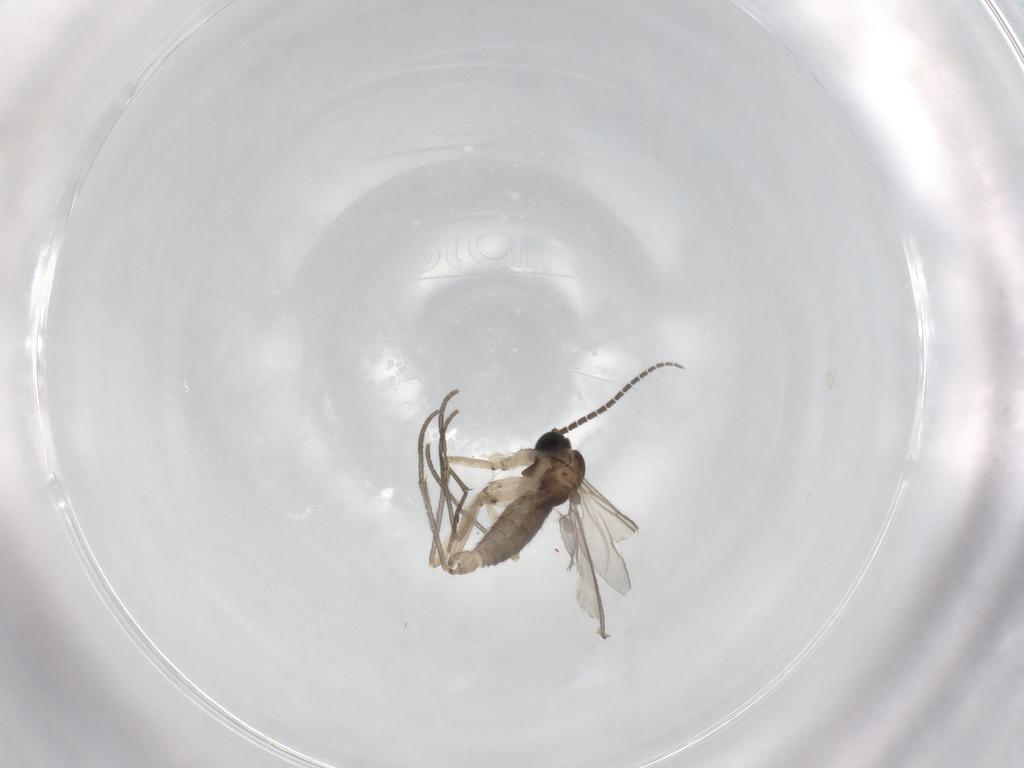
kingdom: Animalia
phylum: Arthropoda
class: Insecta
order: Diptera
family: Sciaridae
